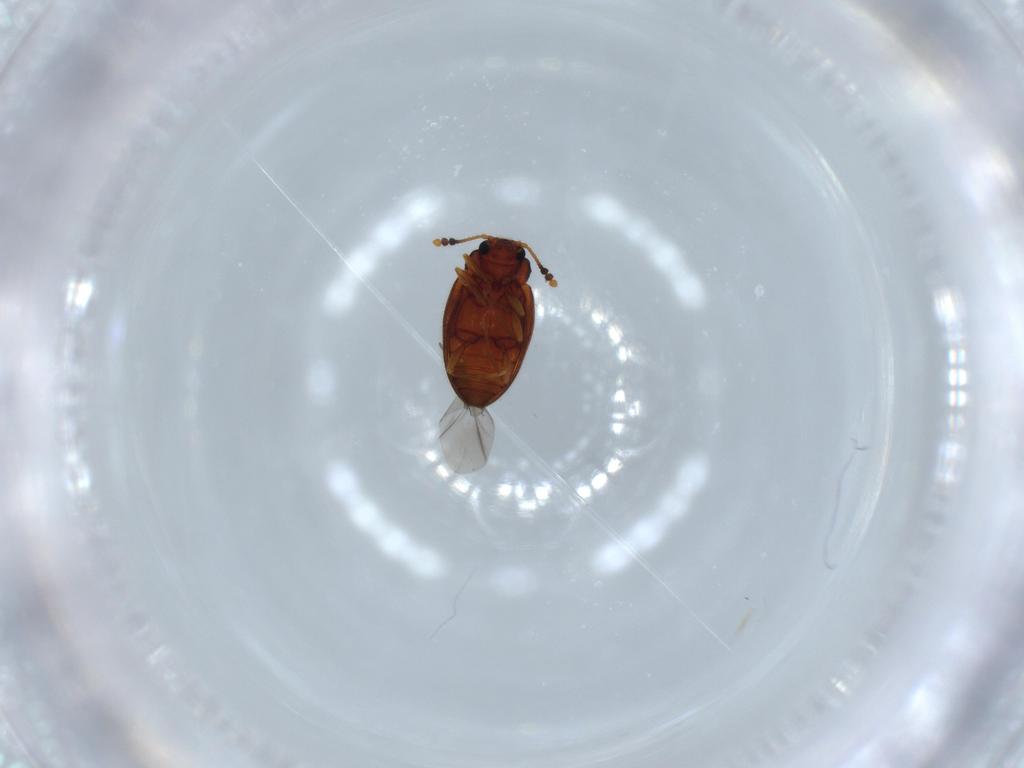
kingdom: Animalia
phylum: Arthropoda
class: Insecta
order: Coleoptera
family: Erotylidae
